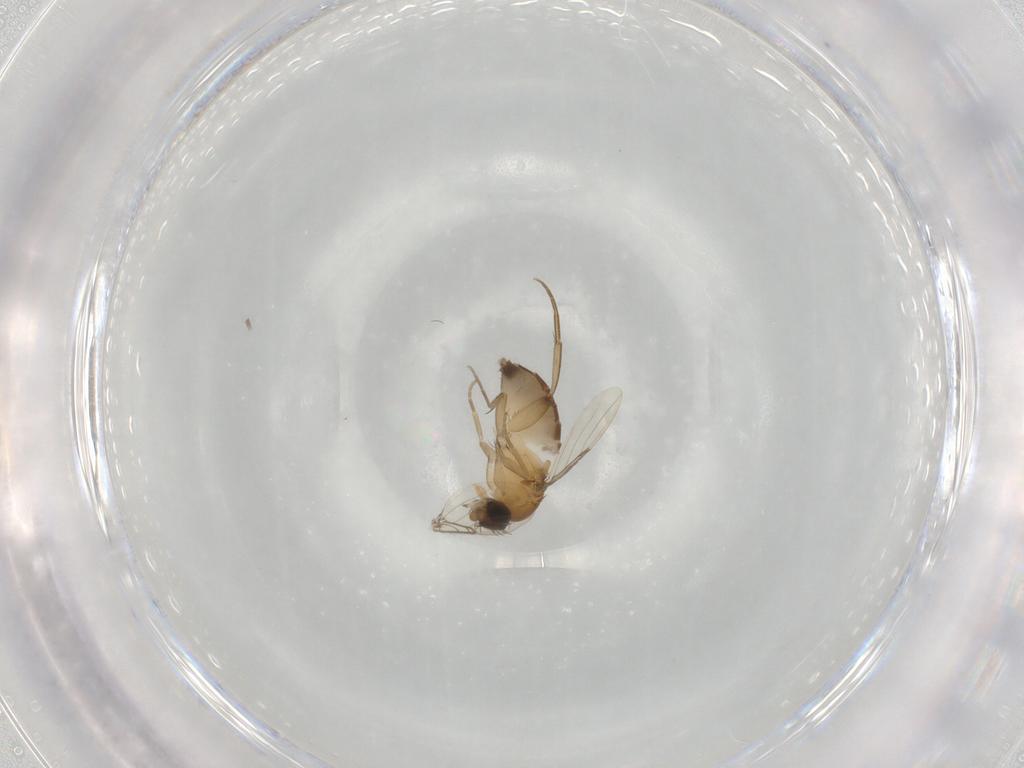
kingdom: Animalia
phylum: Arthropoda
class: Insecta
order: Diptera
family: Phoridae
